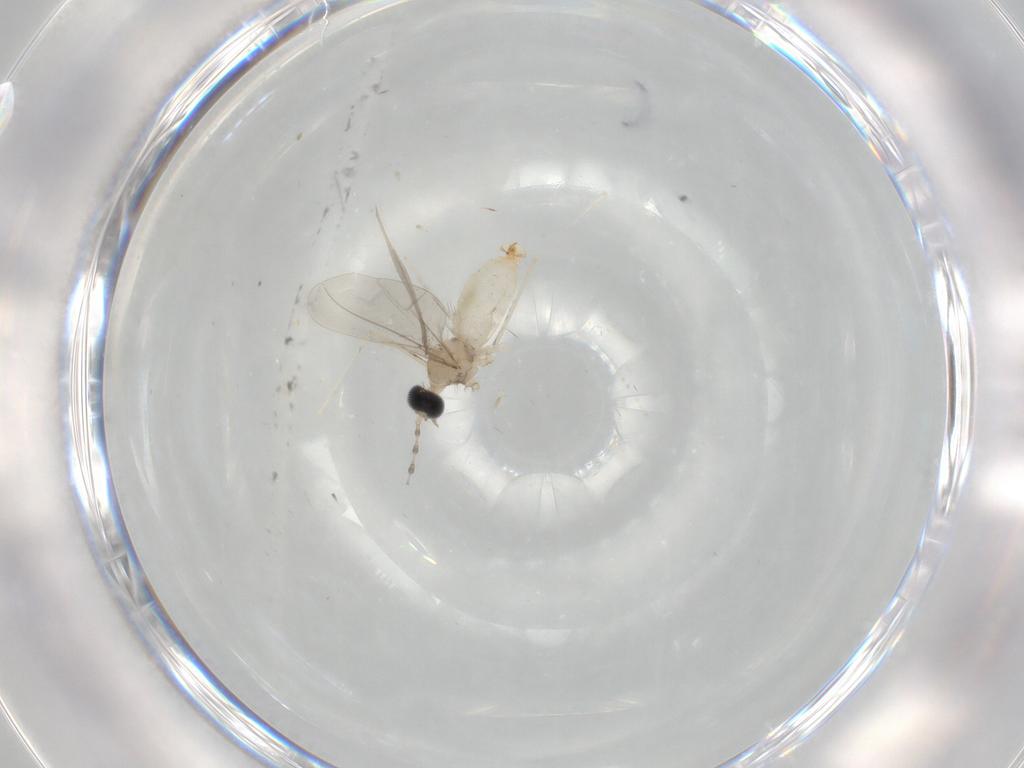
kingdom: Animalia
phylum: Arthropoda
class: Insecta
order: Diptera
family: Cecidomyiidae
